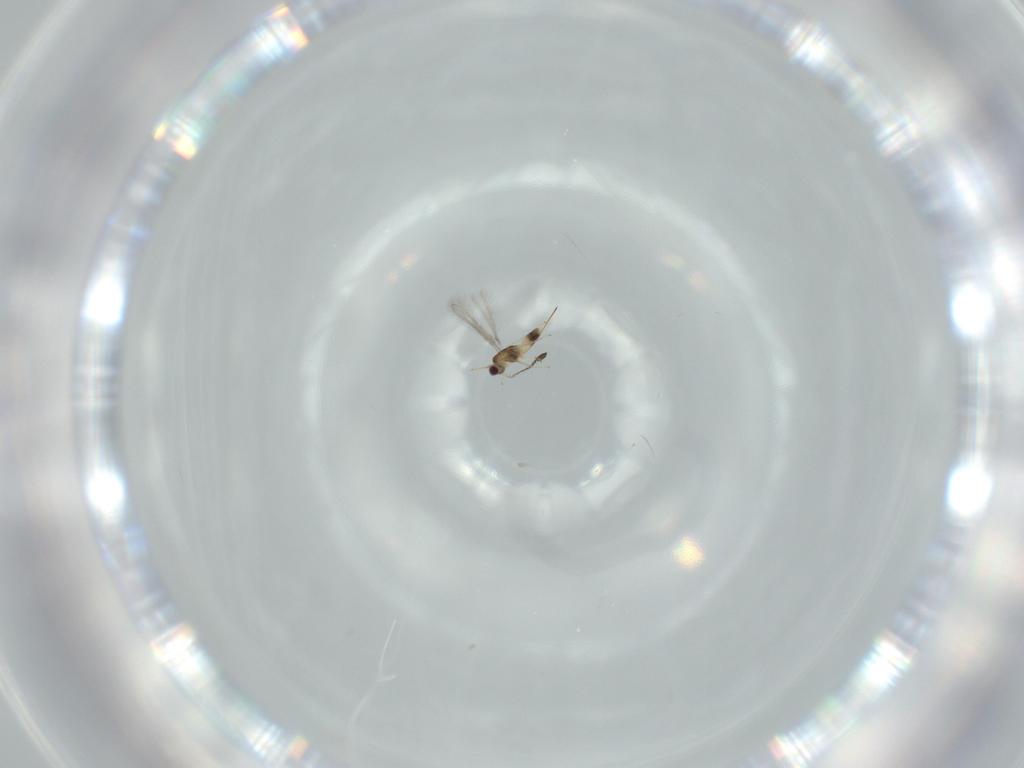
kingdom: Animalia
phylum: Arthropoda
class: Insecta
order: Hymenoptera
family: Mymaridae
